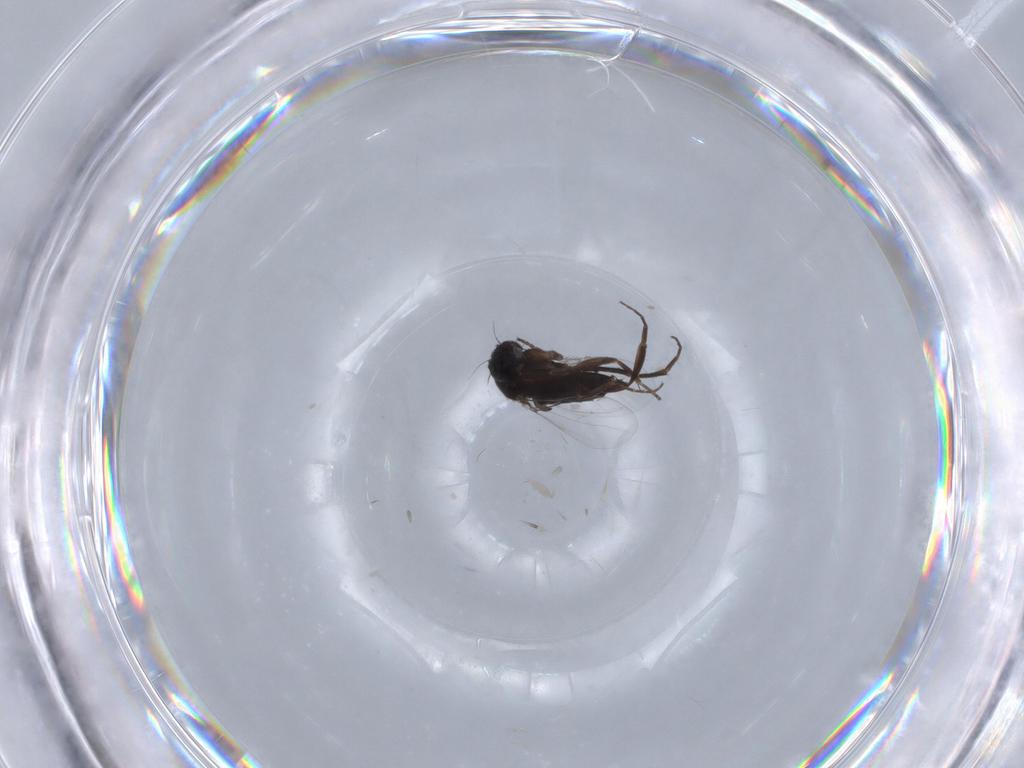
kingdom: Animalia
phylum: Arthropoda
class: Insecta
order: Diptera
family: Phoridae
